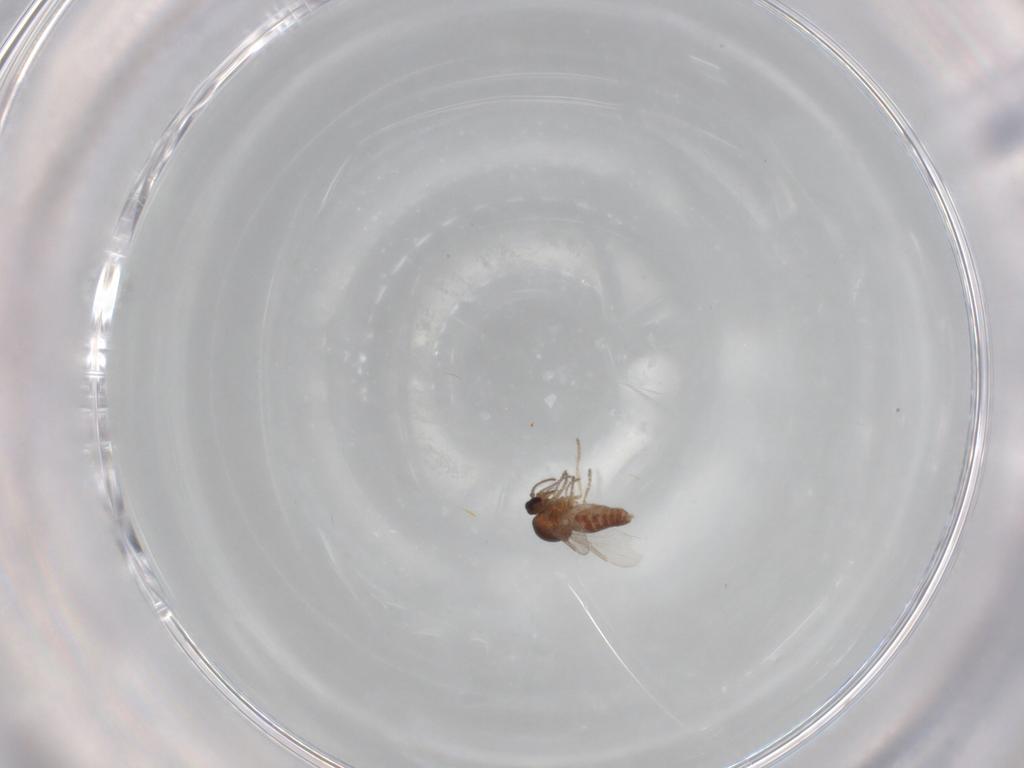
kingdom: Animalia
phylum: Arthropoda
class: Insecta
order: Diptera
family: Ceratopogonidae
